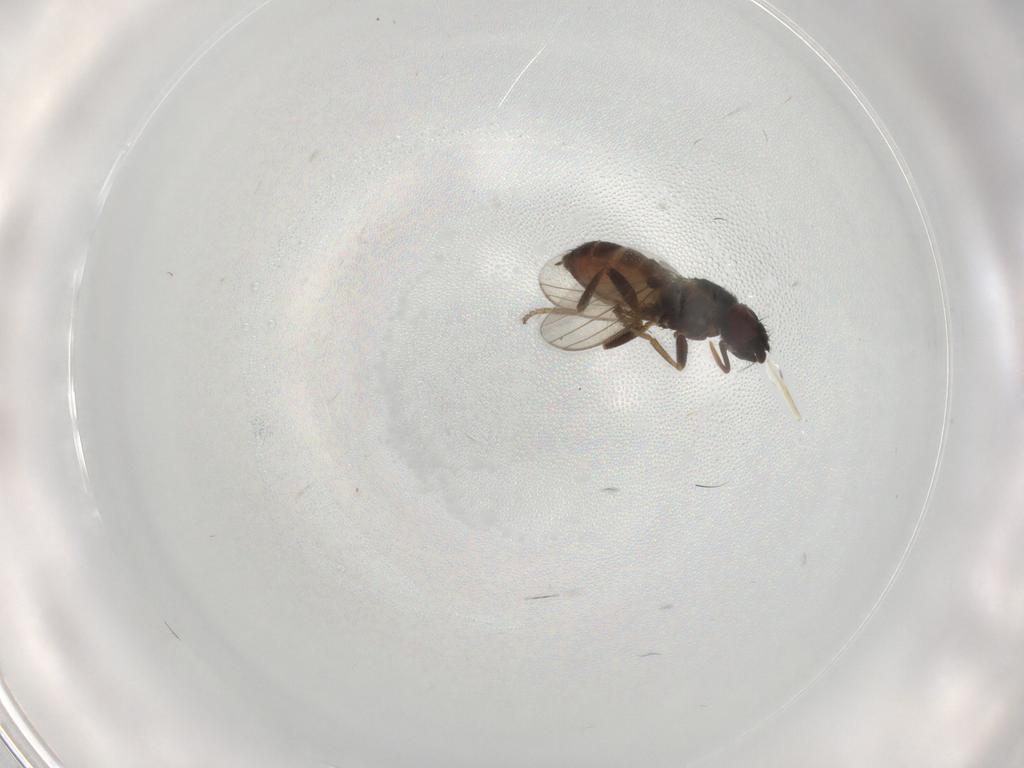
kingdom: Animalia
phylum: Arthropoda
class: Insecta
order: Diptera
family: Milichiidae
